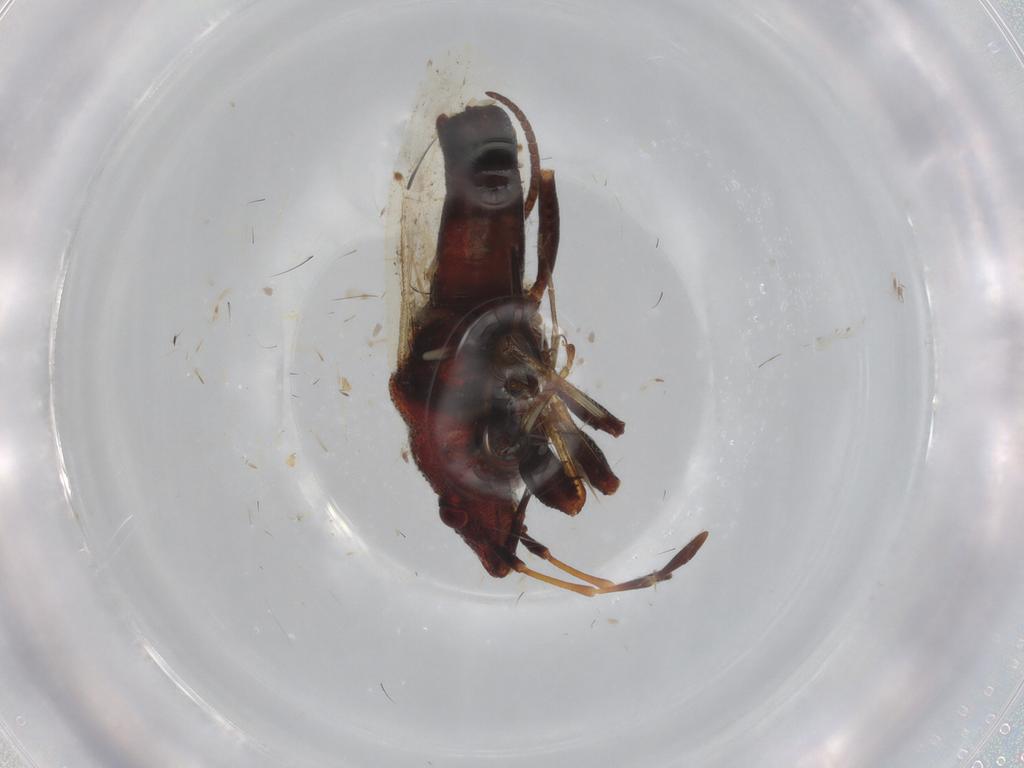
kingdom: Animalia
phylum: Arthropoda
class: Insecta
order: Hemiptera
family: Oxycarenidae
